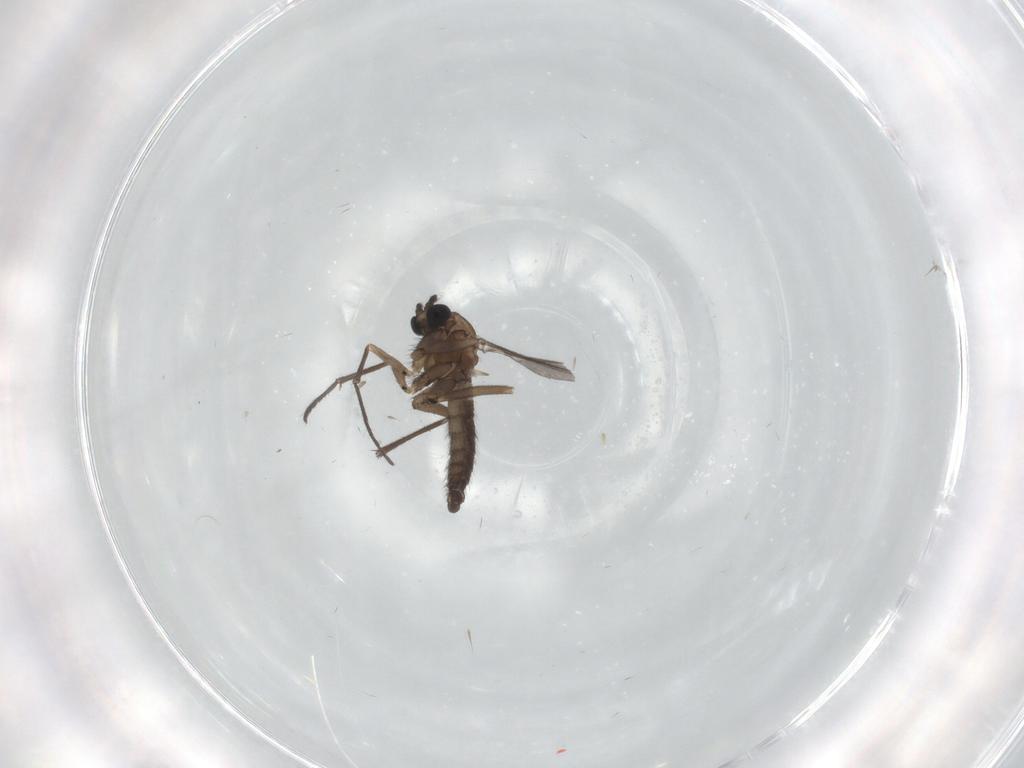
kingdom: Animalia
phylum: Arthropoda
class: Insecta
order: Diptera
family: Sciaridae
